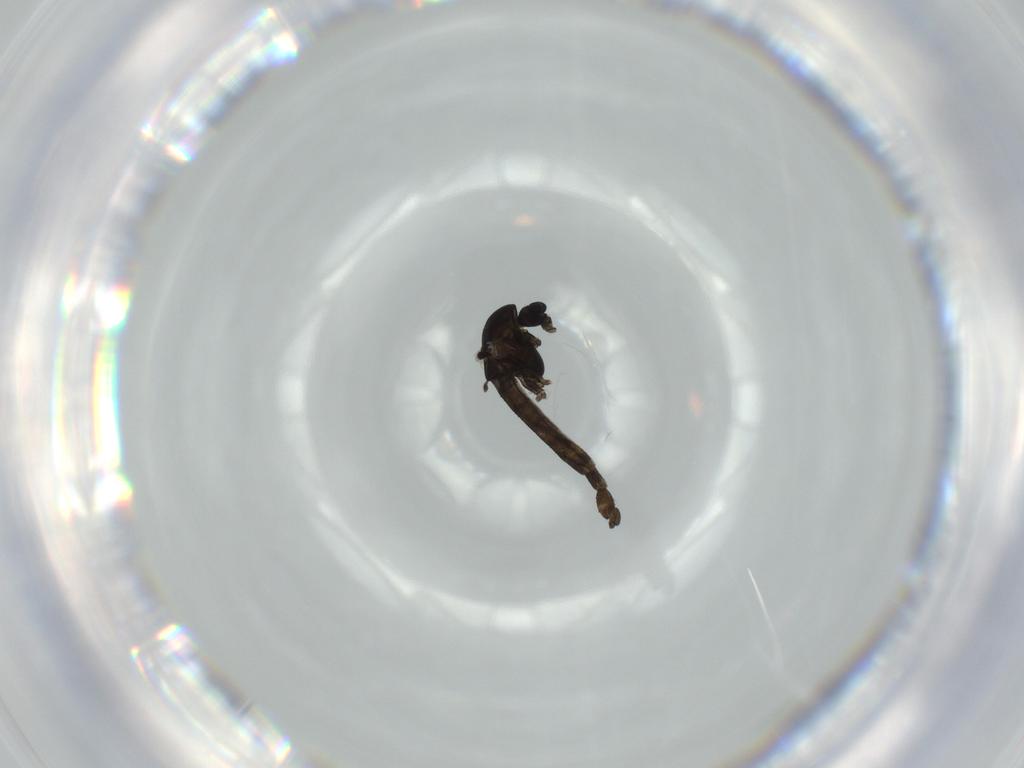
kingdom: Animalia
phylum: Arthropoda
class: Insecta
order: Diptera
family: Chironomidae
